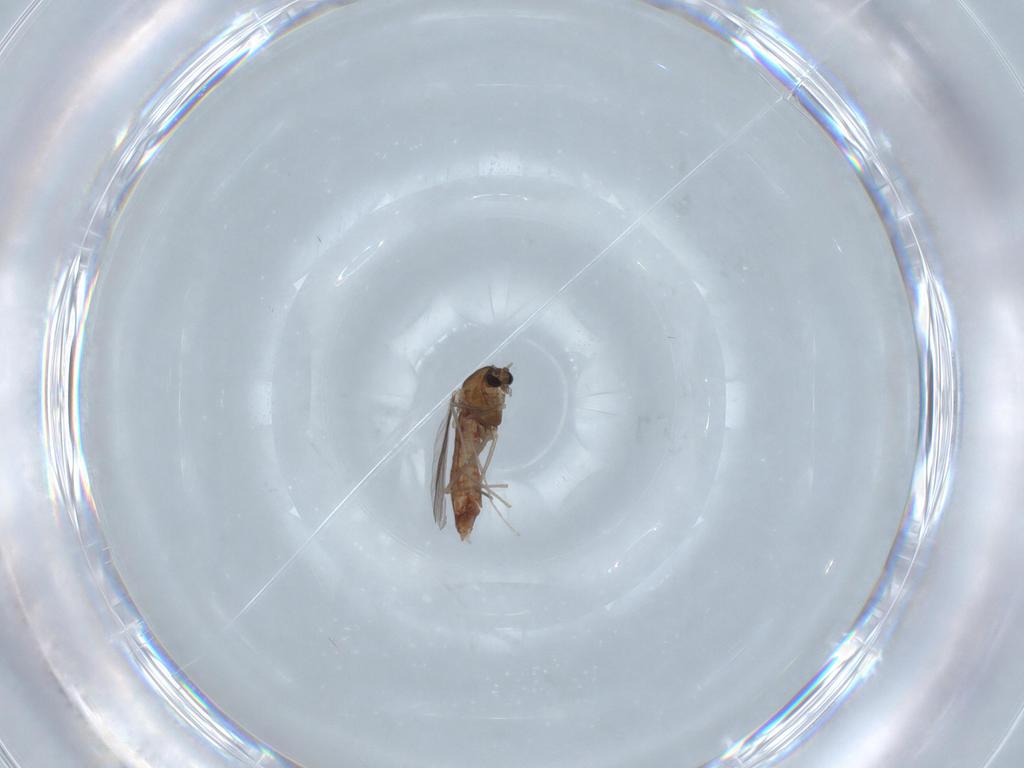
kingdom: Animalia
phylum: Arthropoda
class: Insecta
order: Diptera
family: Chironomidae
